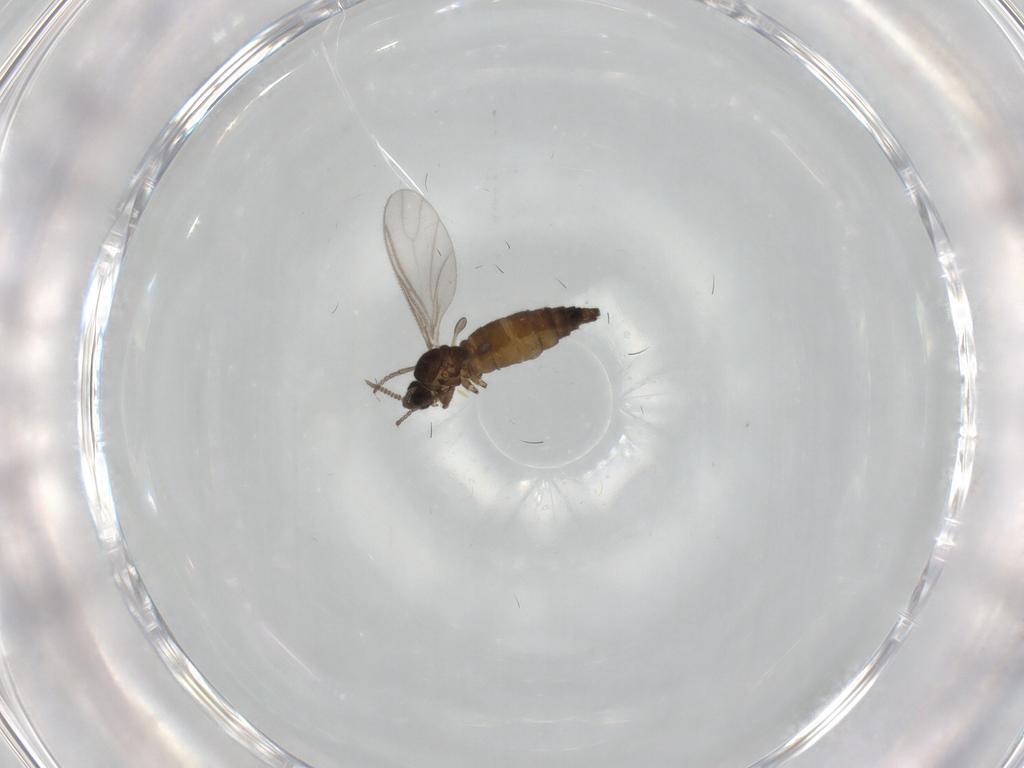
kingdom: Animalia
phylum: Arthropoda
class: Insecta
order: Diptera
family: Sciaridae
